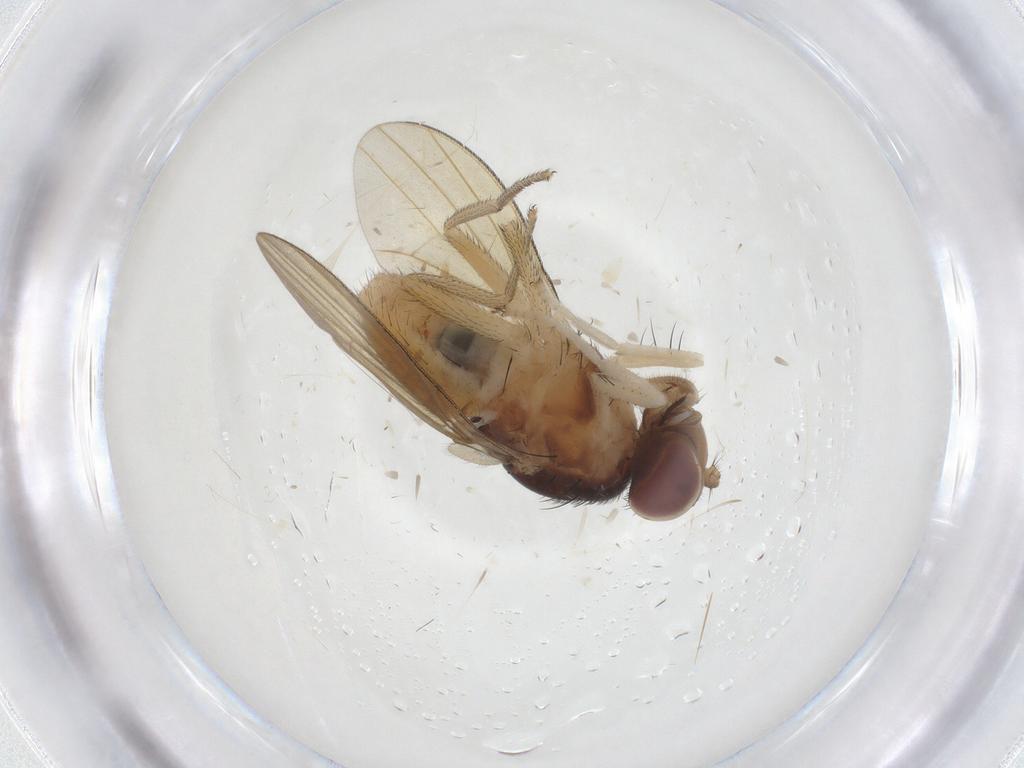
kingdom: Animalia
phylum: Arthropoda
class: Insecta
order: Diptera
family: Lauxaniidae
